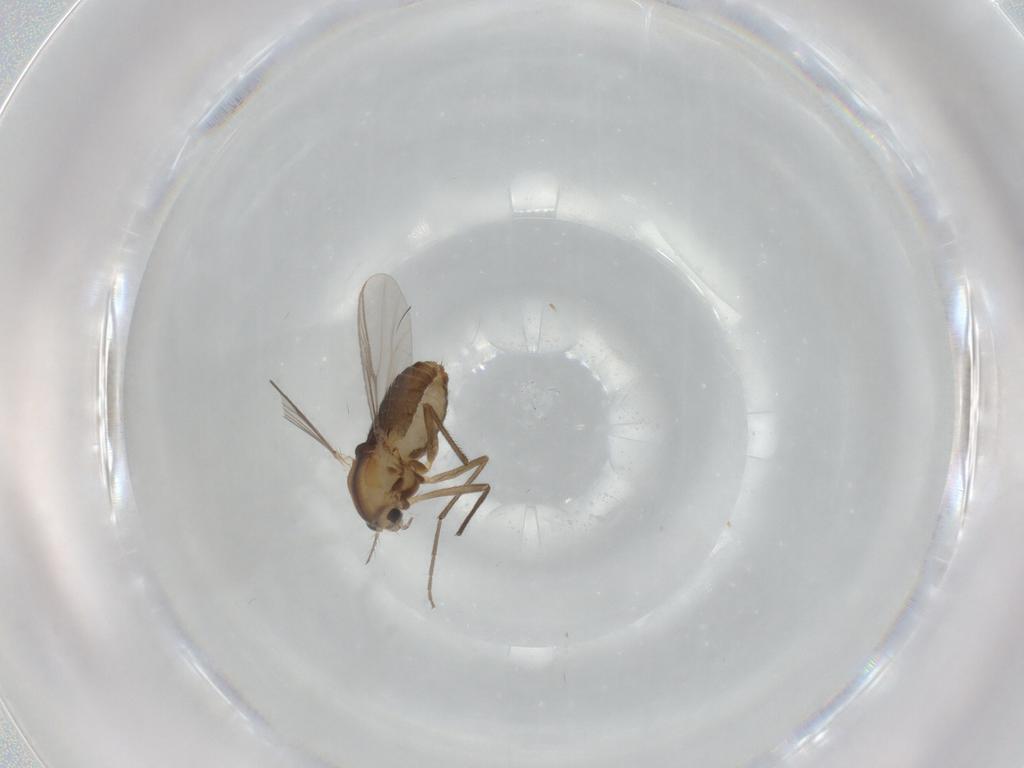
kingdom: Animalia
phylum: Arthropoda
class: Insecta
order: Diptera
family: Chironomidae
